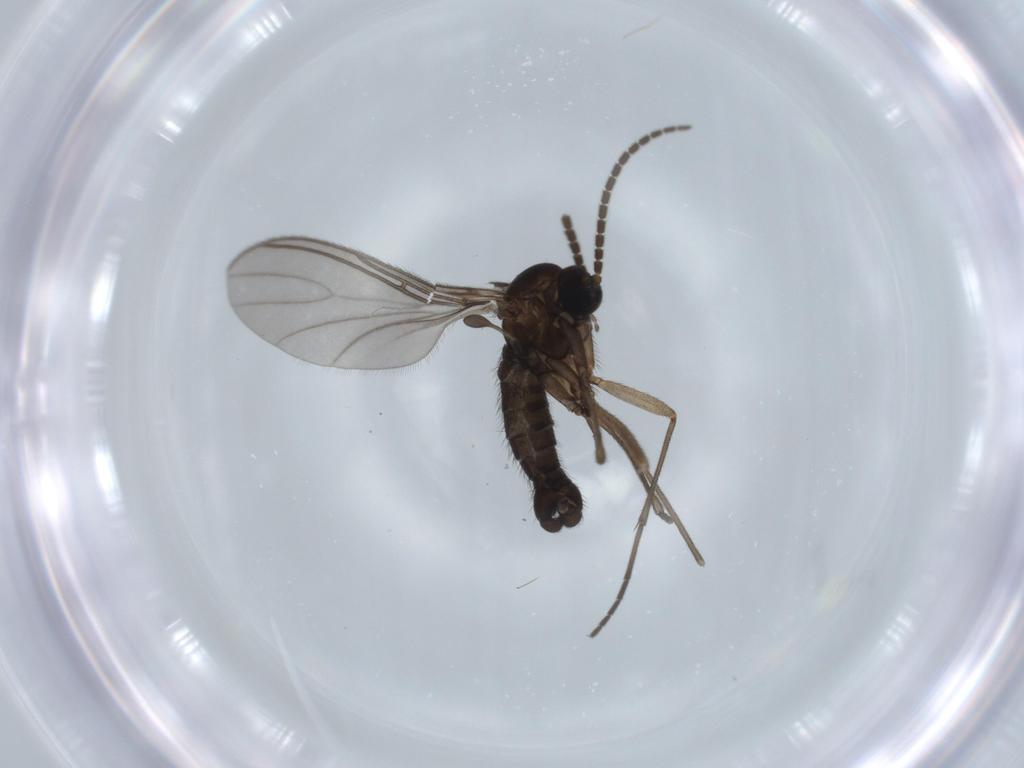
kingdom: Animalia
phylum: Arthropoda
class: Insecta
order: Diptera
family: Sciaridae
